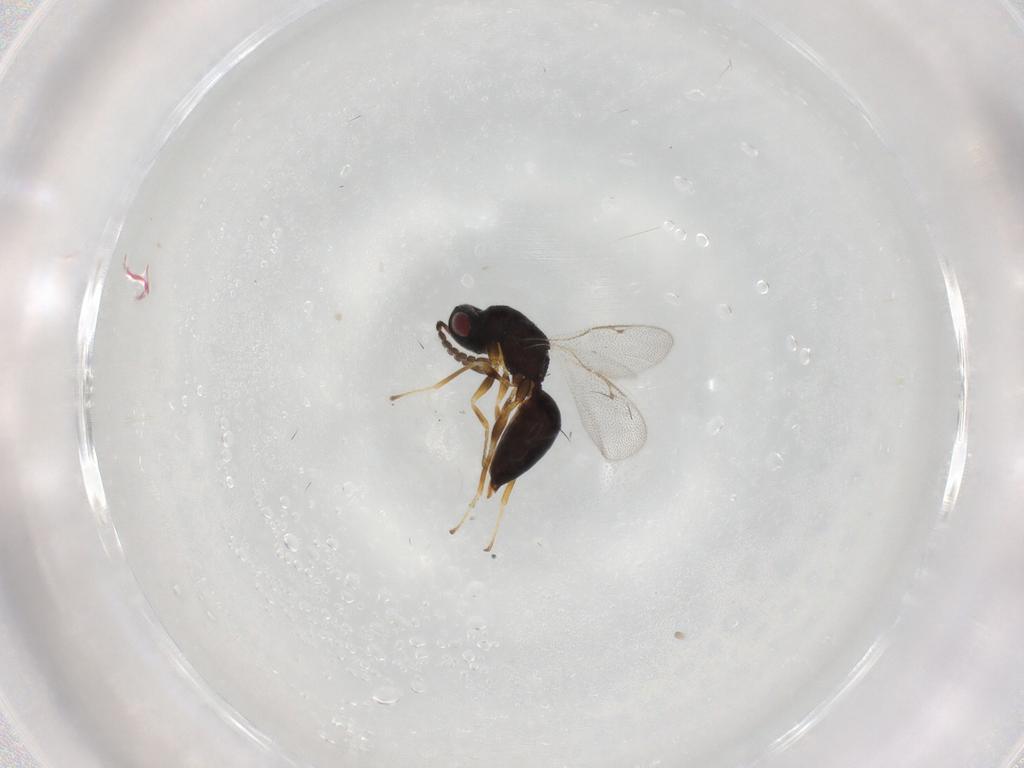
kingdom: Animalia
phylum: Arthropoda
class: Insecta
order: Hymenoptera
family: Eurytomidae
